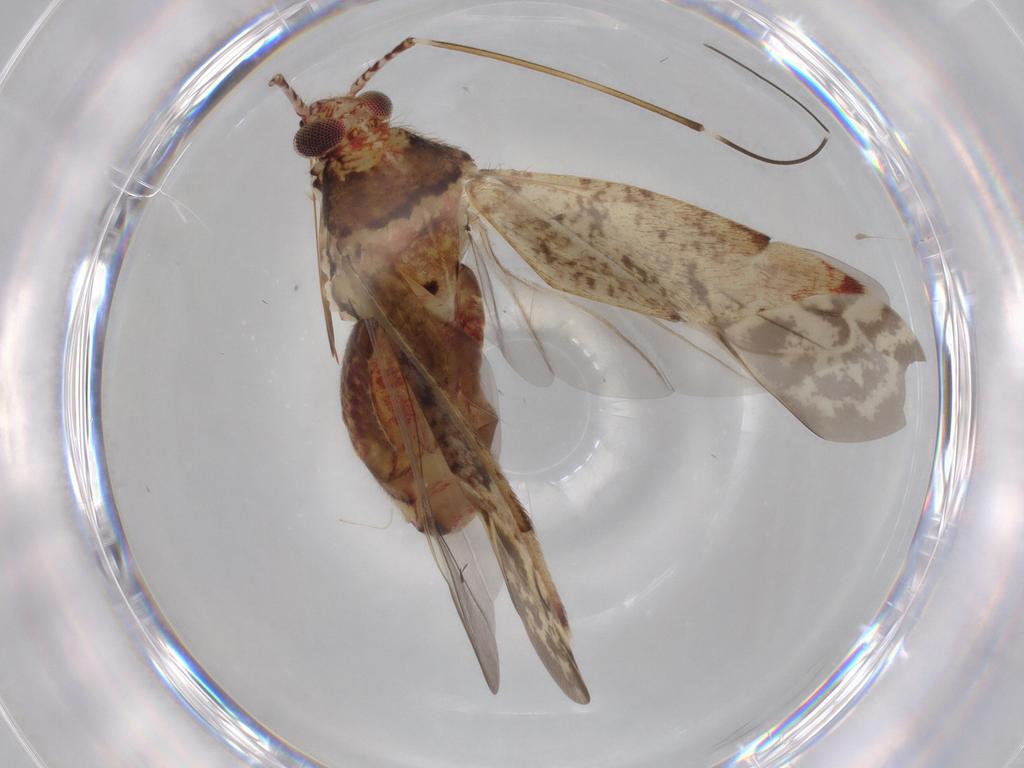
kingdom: Animalia
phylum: Arthropoda
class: Insecta
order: Hemiptera
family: Miridae
